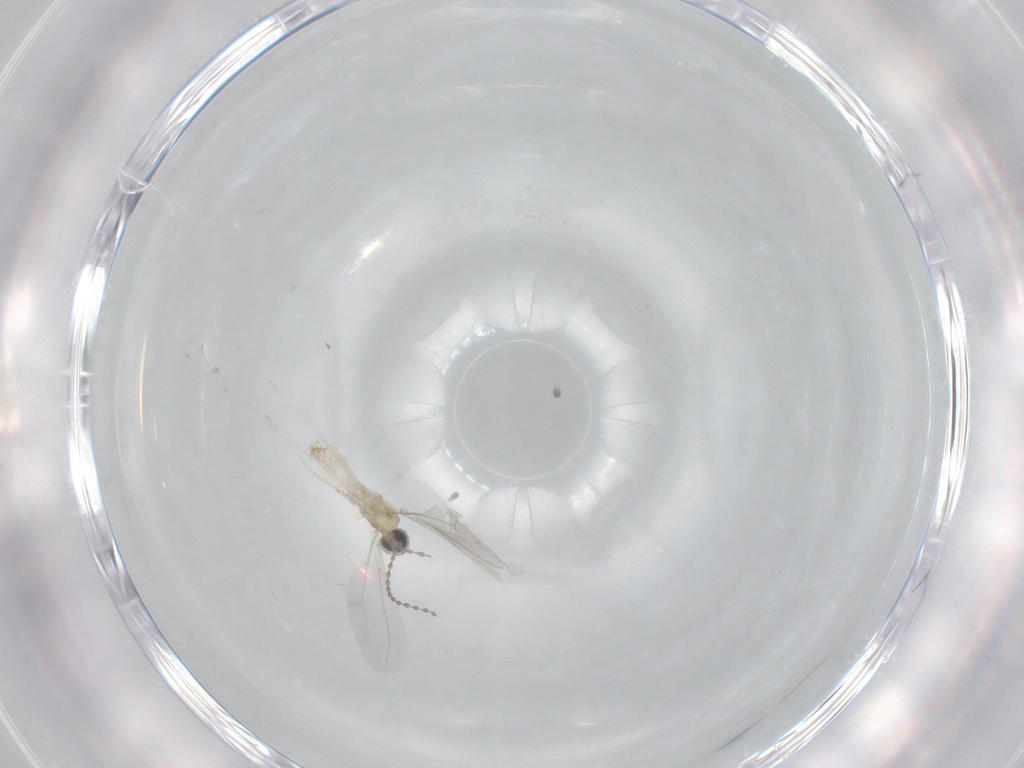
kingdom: Animalia
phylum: Arthropoda
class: Insecta
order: Diptera
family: Cecidomyiidae
